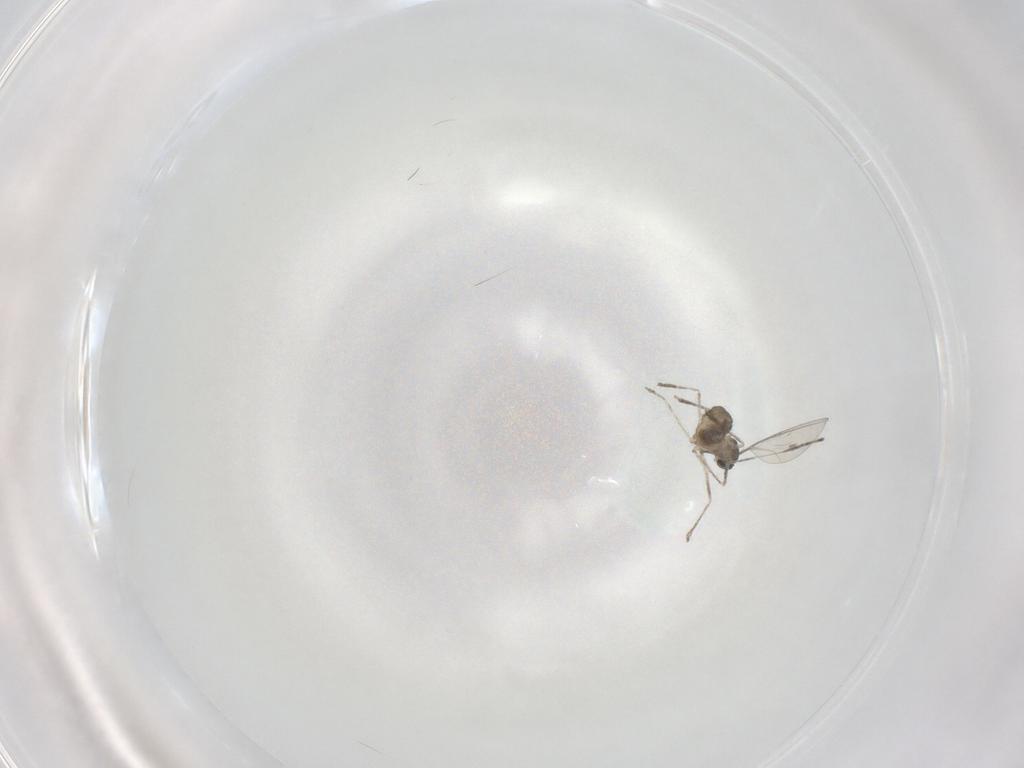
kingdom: Animalia
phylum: Arthropoda
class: Insecta
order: Diptera
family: Cecidomyiidae
